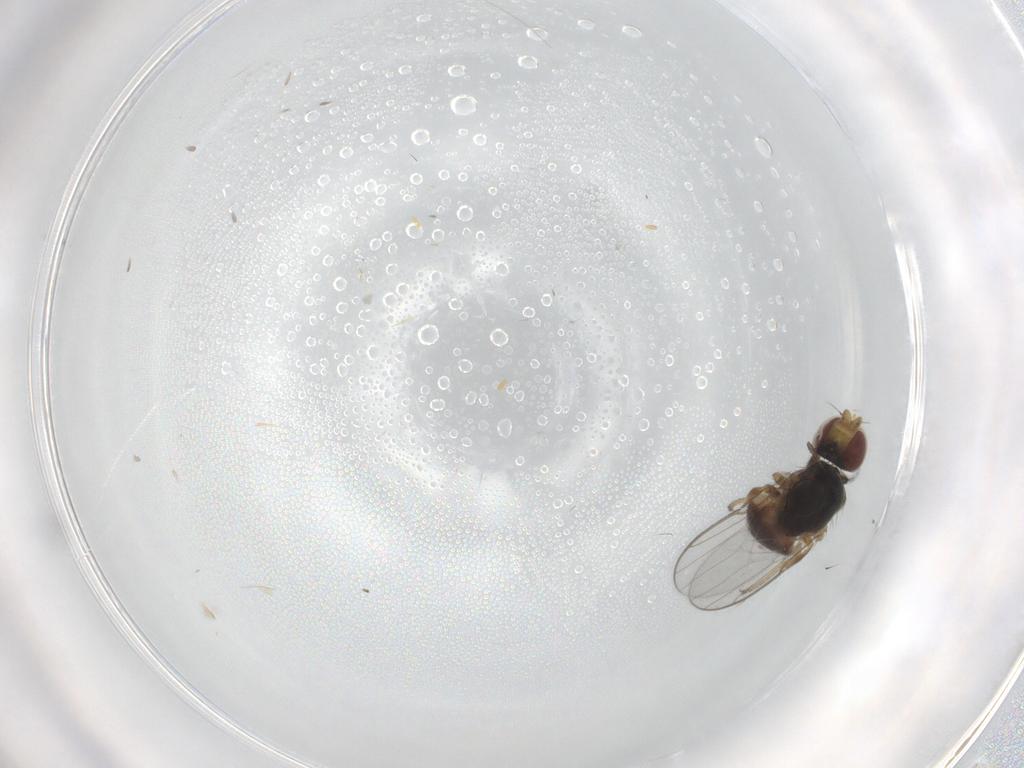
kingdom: Animalia
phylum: Arthropoda
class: Insecta
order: Diptera
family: Chloropidae
